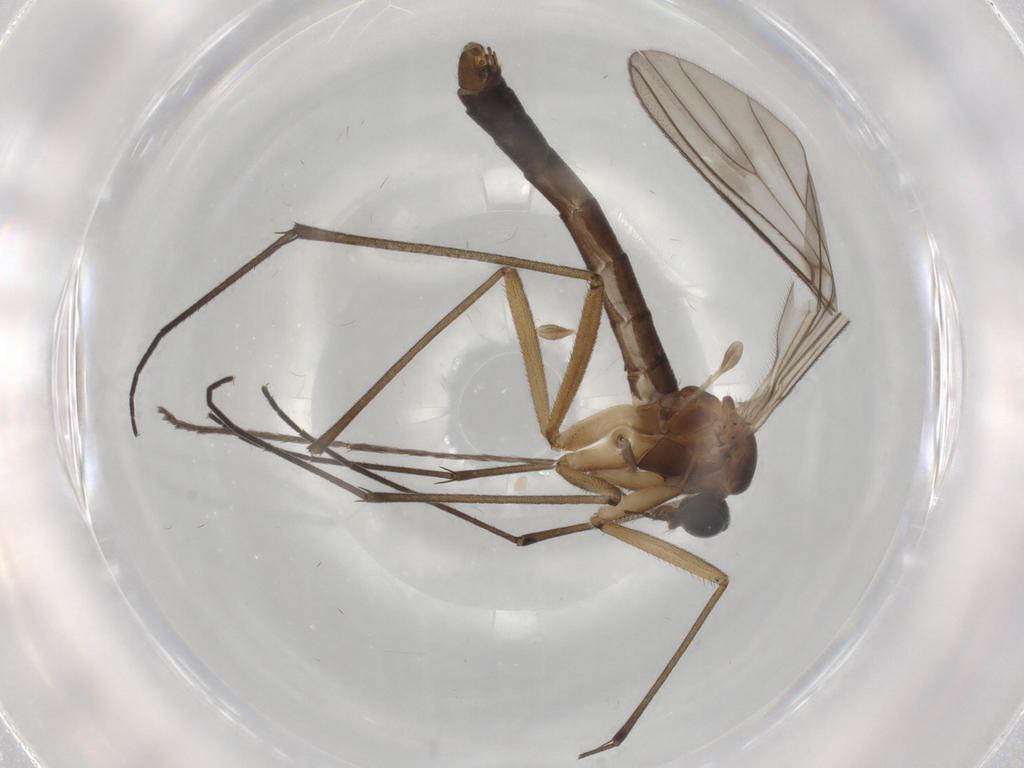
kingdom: Animalia
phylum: Arthropoda
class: Insecta
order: Diptera
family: Empididae
